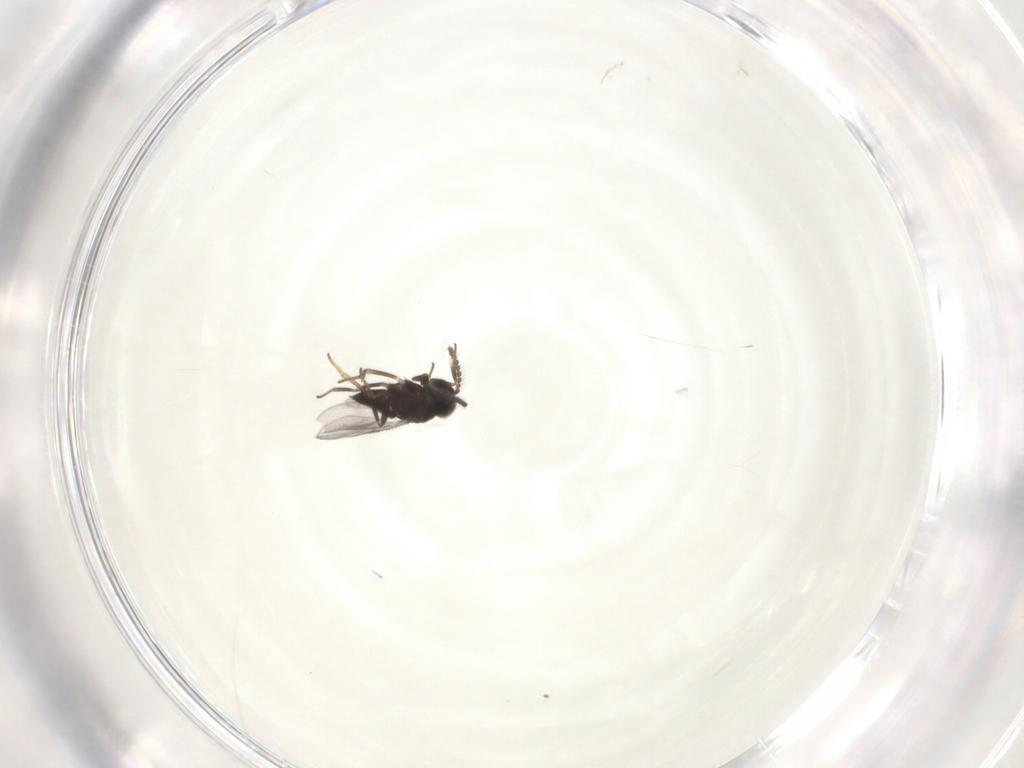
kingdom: Animalia
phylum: Arthropoda
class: Insecta
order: Hymenoptera
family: Encyrtidae
